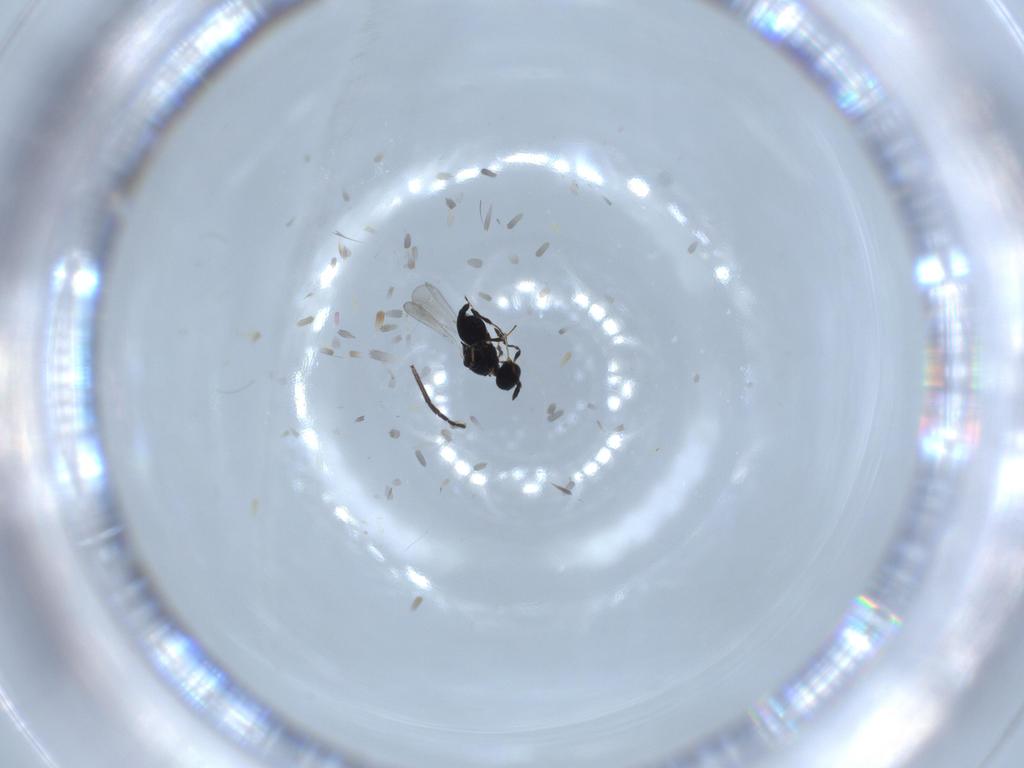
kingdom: Animalia
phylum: Arthropoda
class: Insecta
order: Hymenoptera
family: Platygastridae
